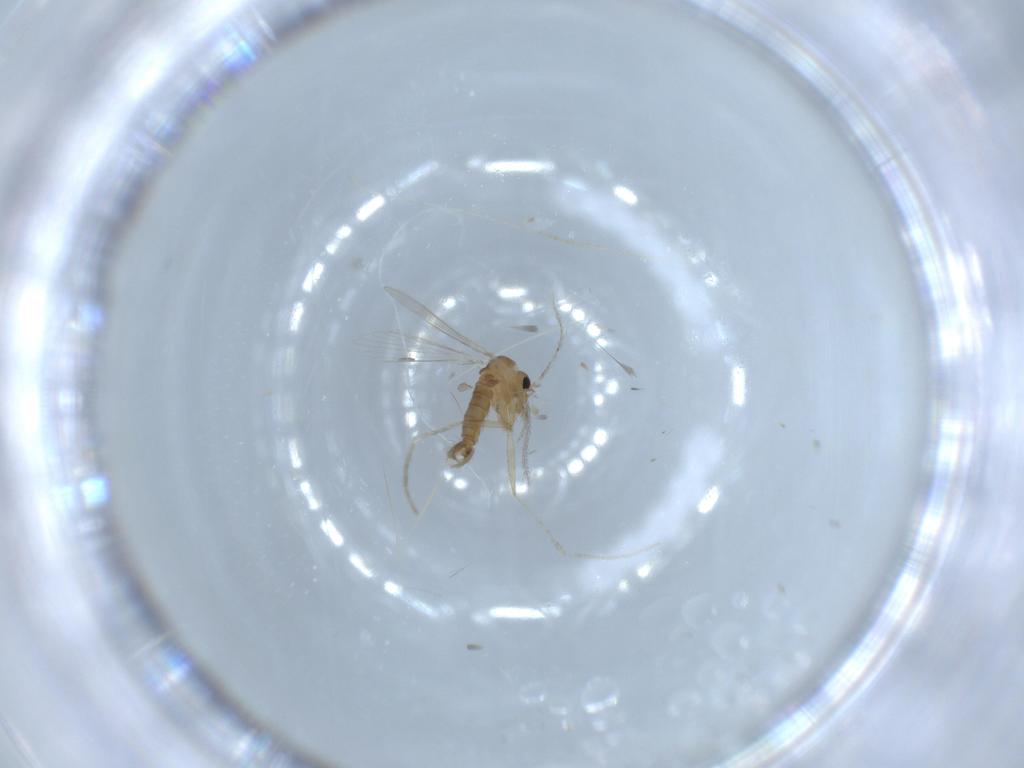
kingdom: Animalia
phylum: Arthropoda
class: Insecta
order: Diptera
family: Psychodidae
